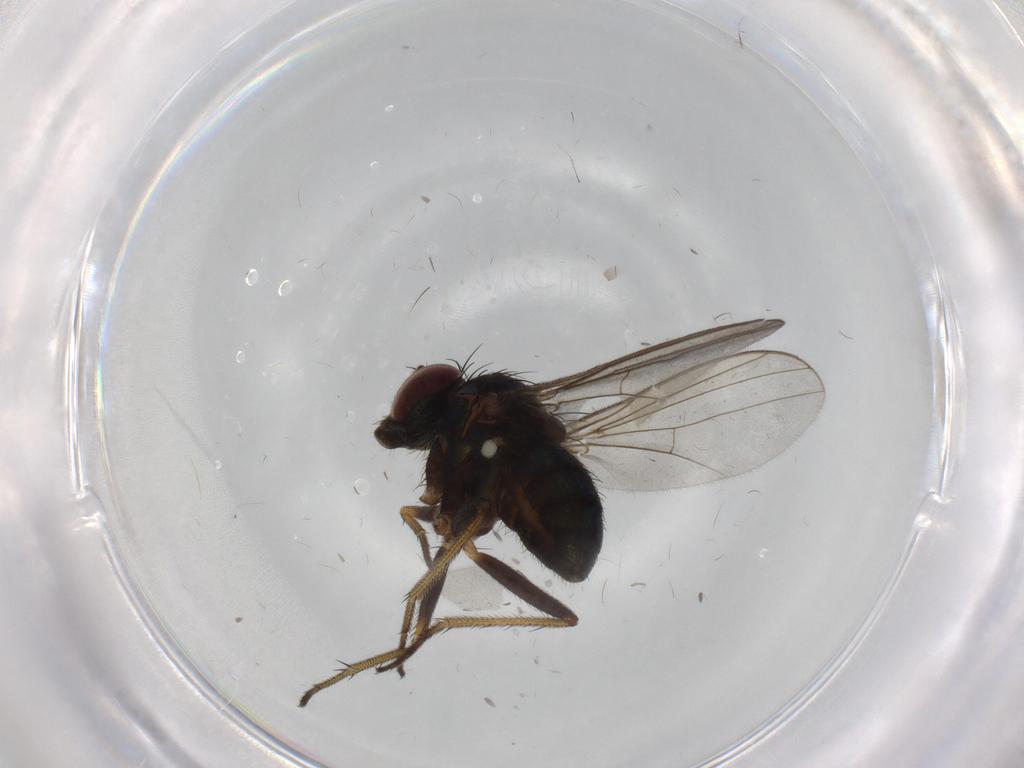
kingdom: Animalia
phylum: Arthropoda
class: Insecta
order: Diptera
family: Dolichopodidae
